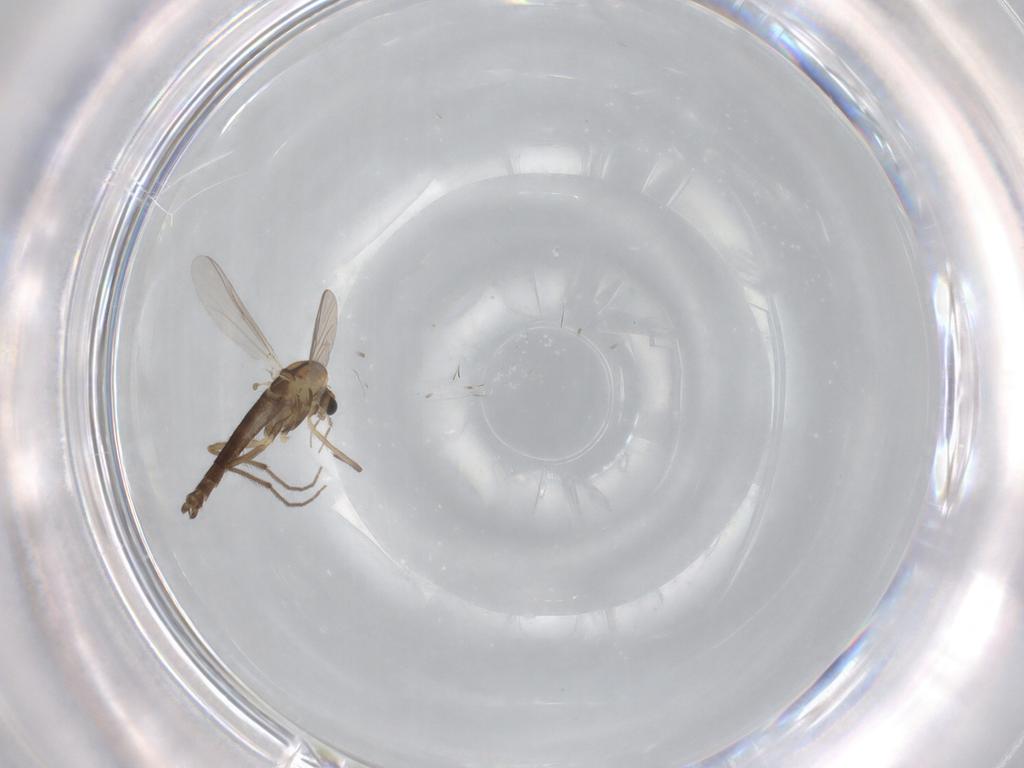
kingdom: Animalia
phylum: Arthropoda
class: Insecta
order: Diptera
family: Chironomidae
